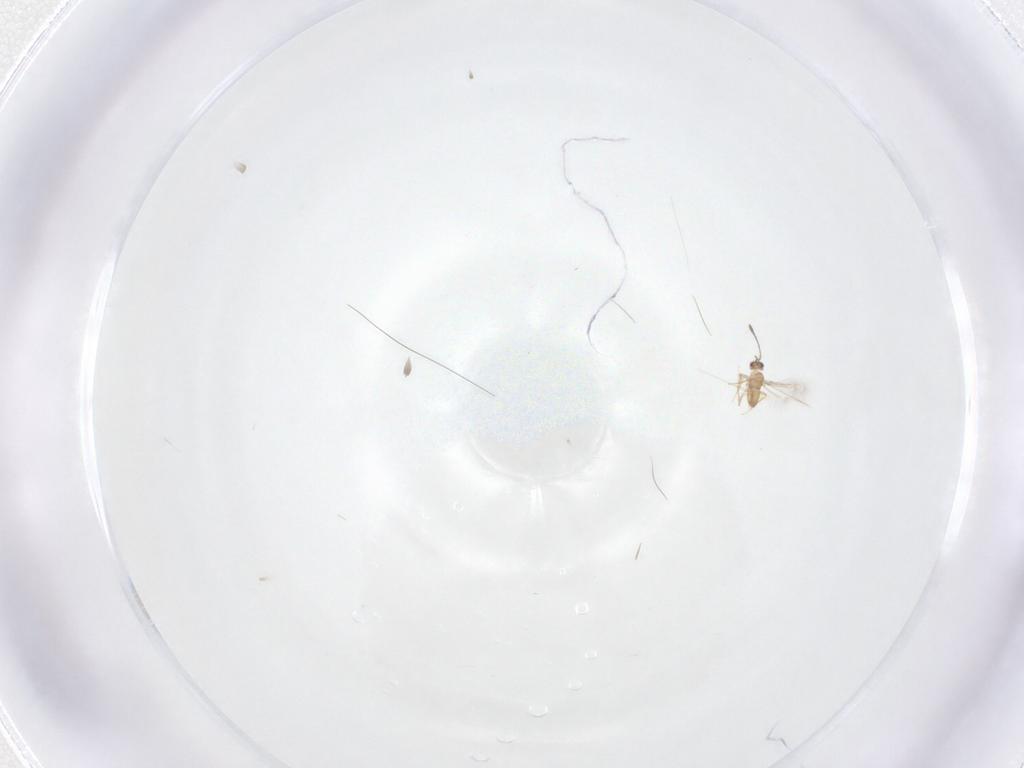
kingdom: Animalia
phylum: Arthropoda
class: Insecta
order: Hymenoptera
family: Mymaridae
